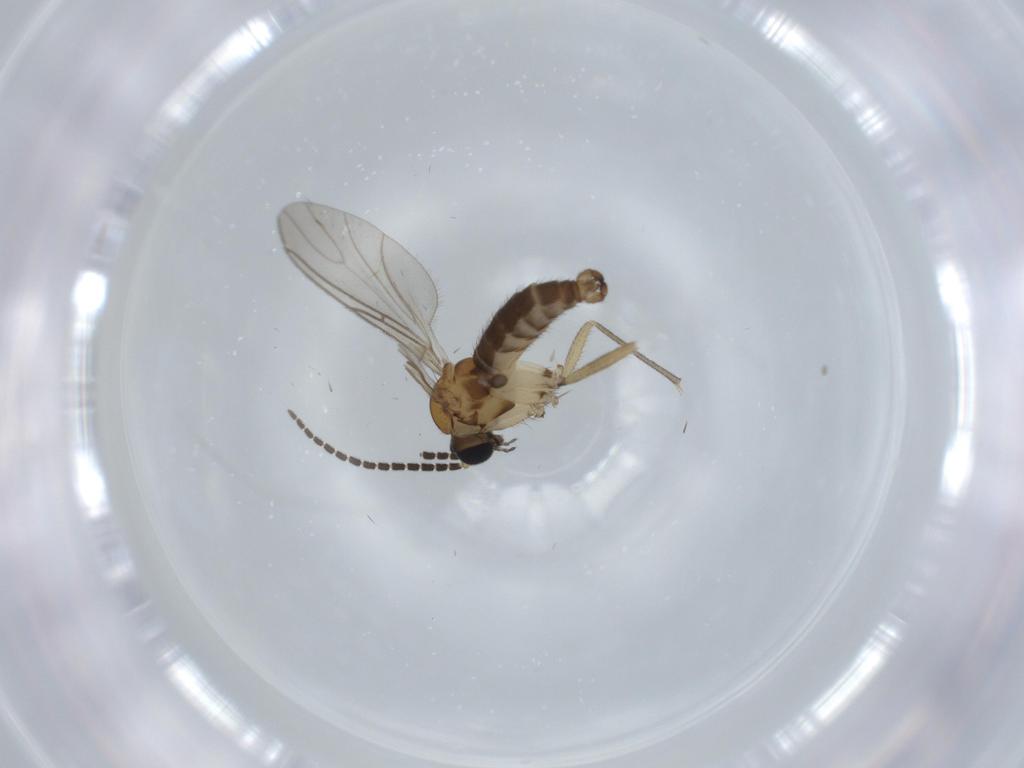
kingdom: Animalia
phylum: Arthropoda
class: Insecta
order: Diptera
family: Sciaridae
